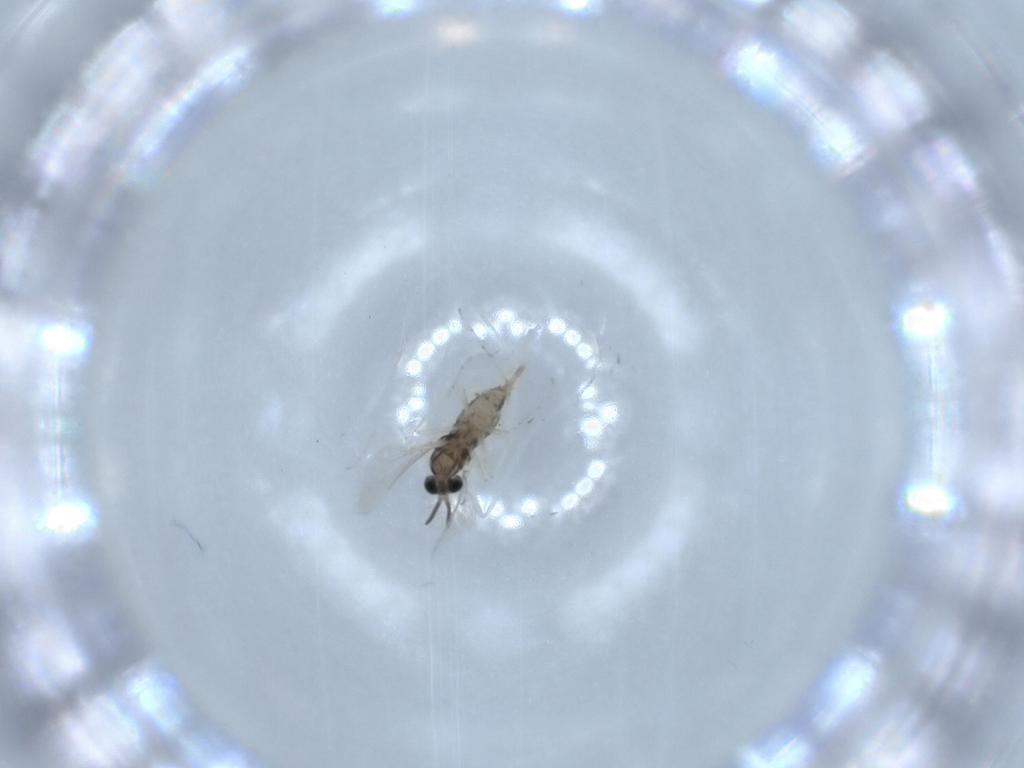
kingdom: Animalia
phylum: Arthropoda
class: Insecta
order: Diptera
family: Cecidomyiidae
